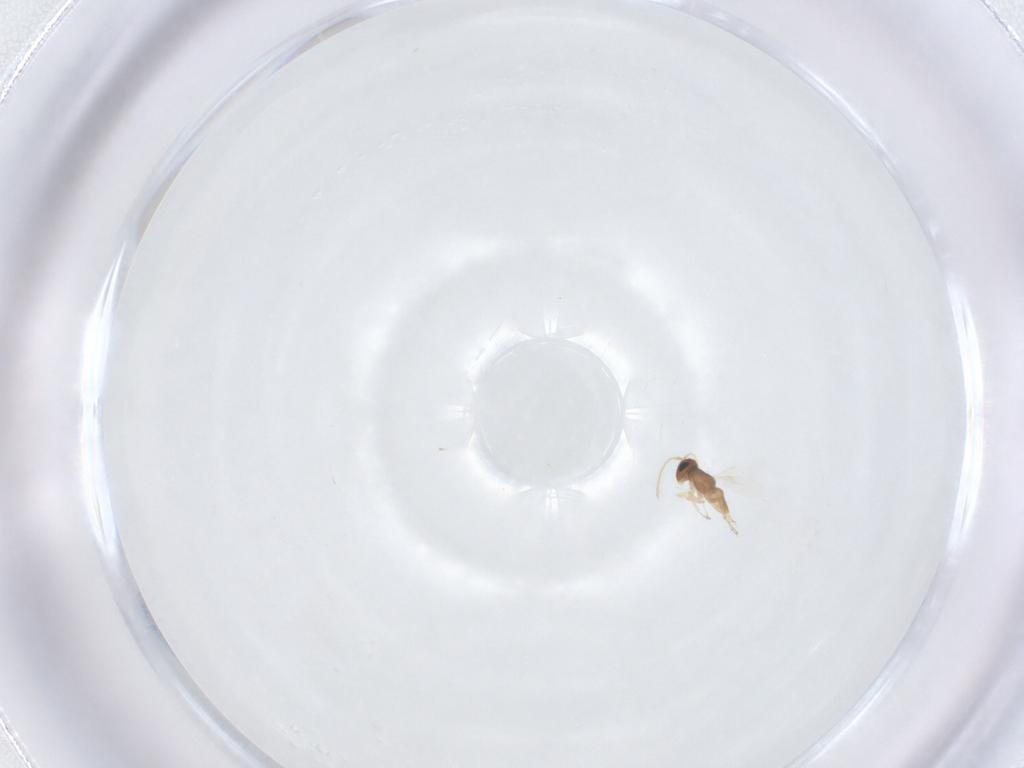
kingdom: Animalia
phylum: Arthropoda
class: Insecta
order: Hymenoptera
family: Encyrtidae
